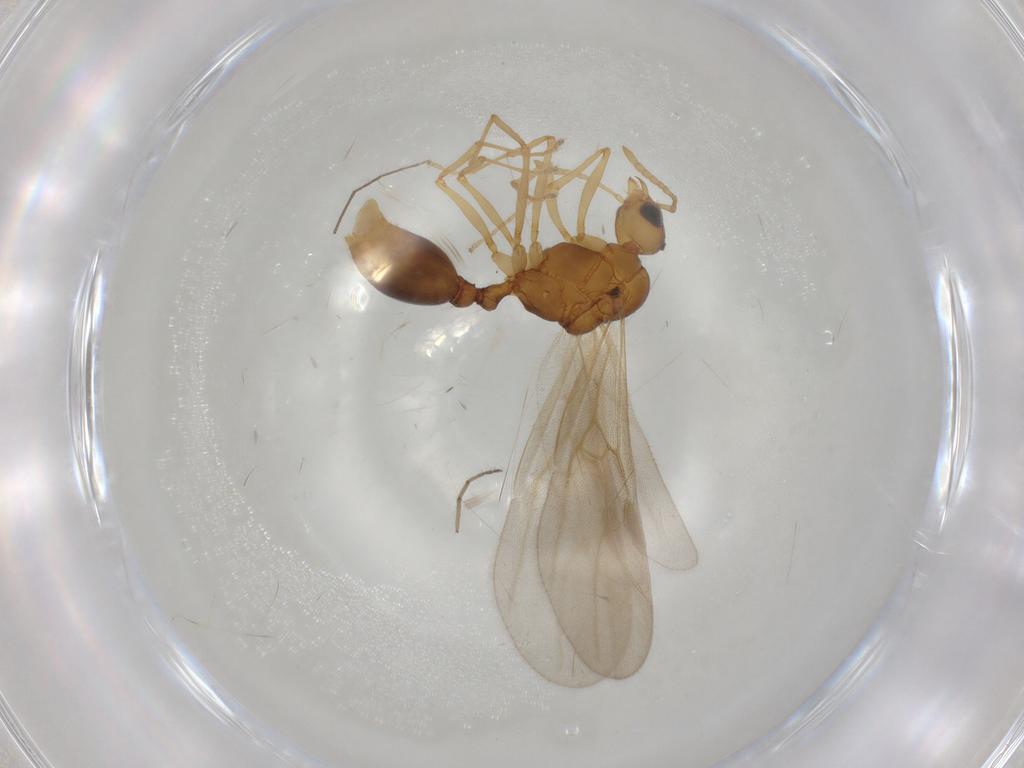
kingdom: Animalia
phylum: Arthropoda
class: Insecta
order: Hymenoptera
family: Formicidae
